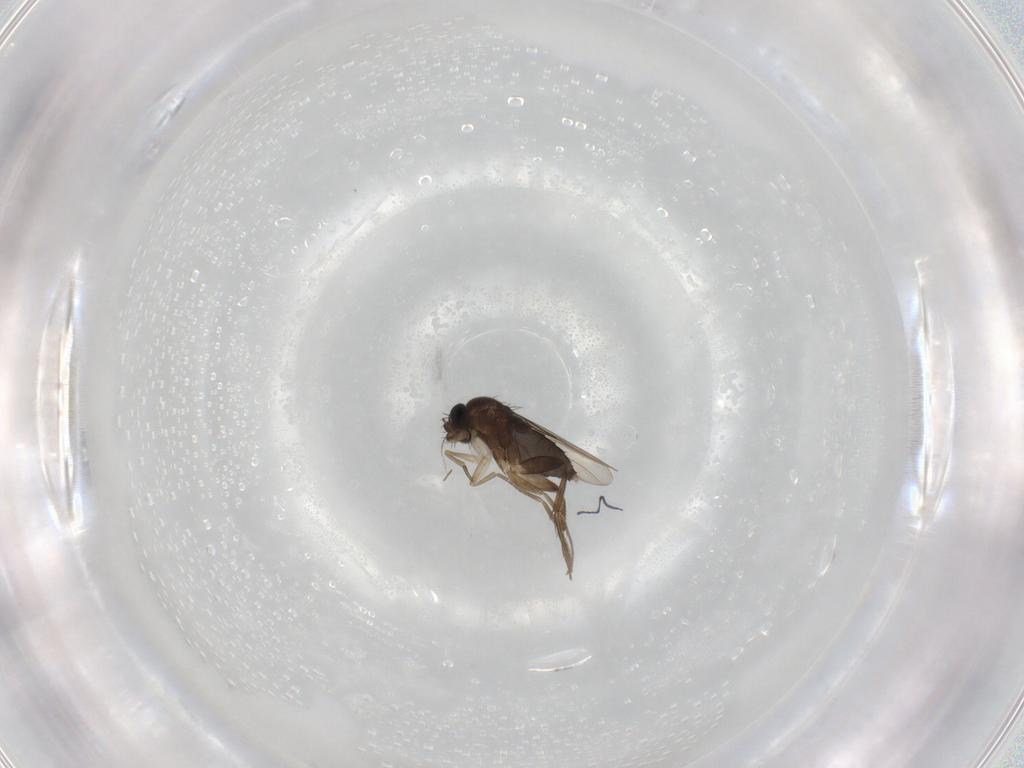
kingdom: Animalia
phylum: Arthropoda
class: Insecta
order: Diptera
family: Phoridae
